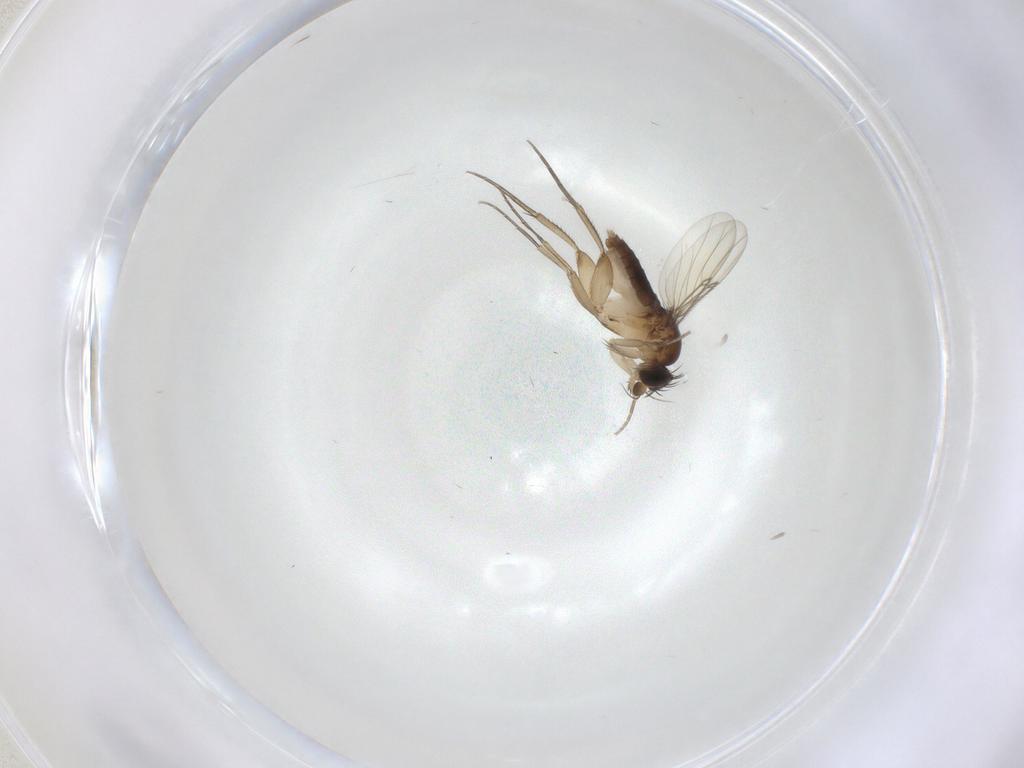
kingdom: Animalia
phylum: Arthropoda
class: Insecta
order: Diptera
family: Phoridae
